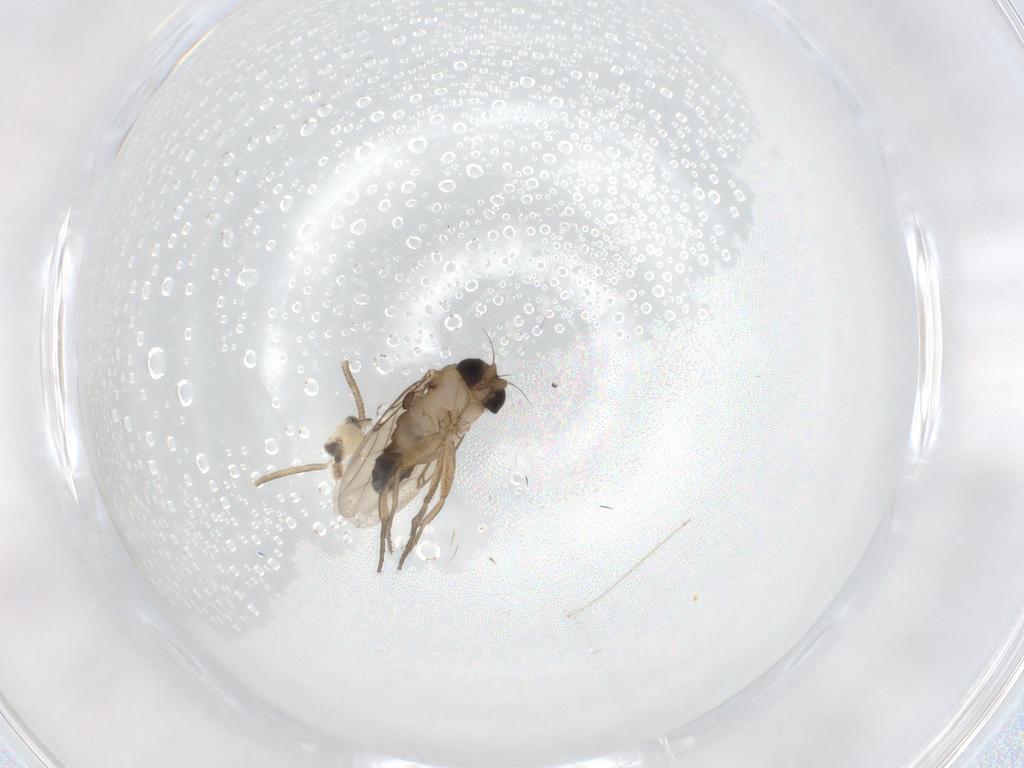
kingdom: Animalia
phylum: Arthropoda
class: Insecta
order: Diptera
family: Phoridae
